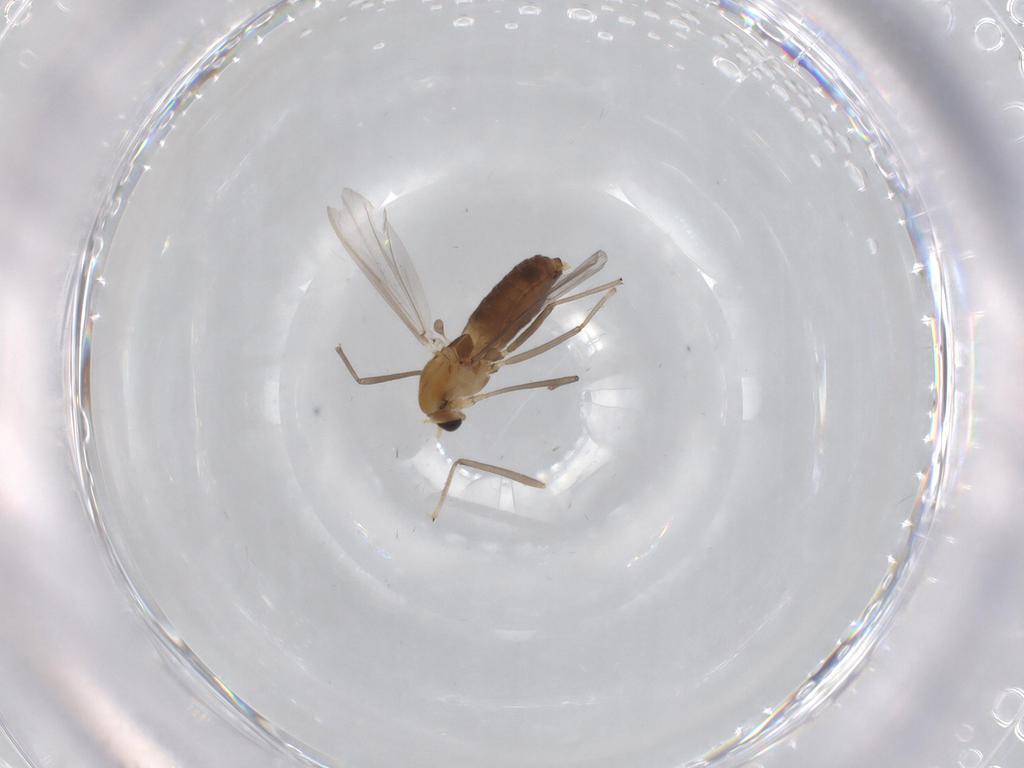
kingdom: Animalia
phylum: Arthropoda
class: Insecta
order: Diptera
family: Chironomidae
